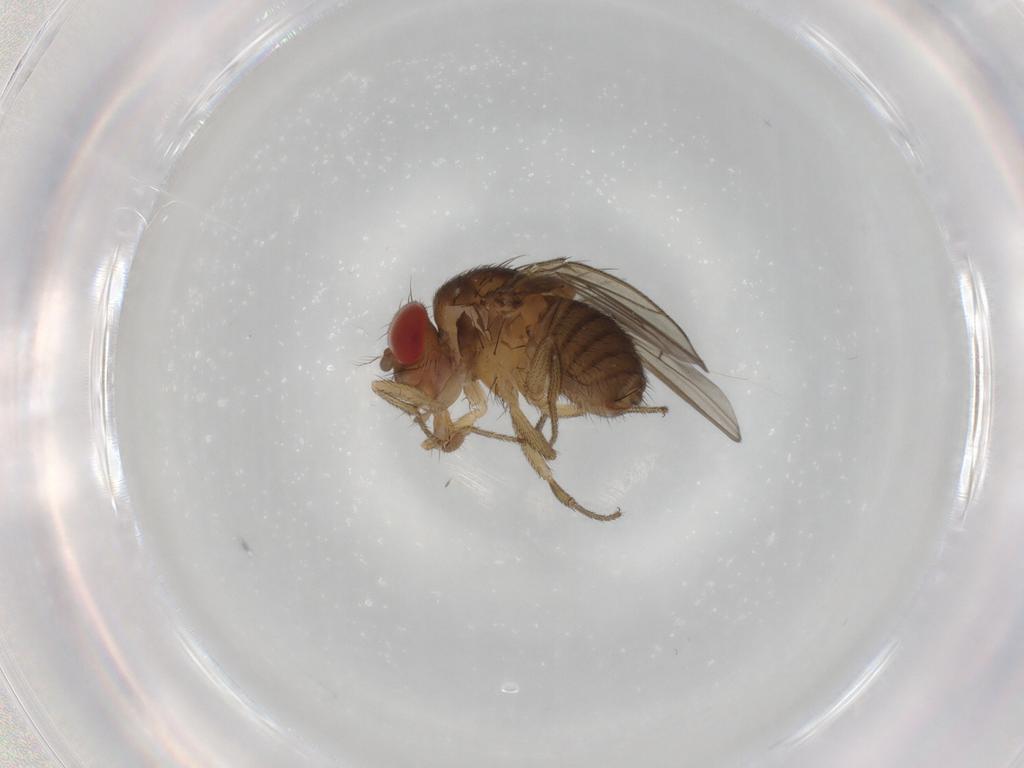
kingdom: Animalia
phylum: Arthropoda
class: Insecta
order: Diptera
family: Drosophilidae
